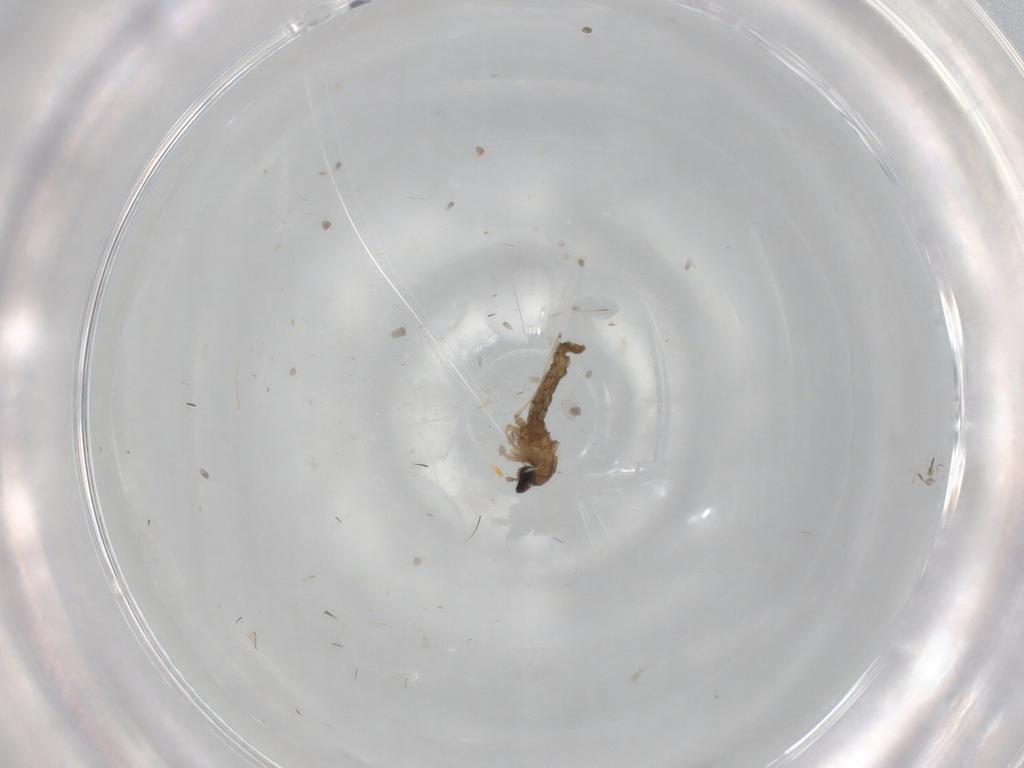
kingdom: Animalia
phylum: Arthropoda
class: Insecta
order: Diptera
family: Cecidomyiidae
